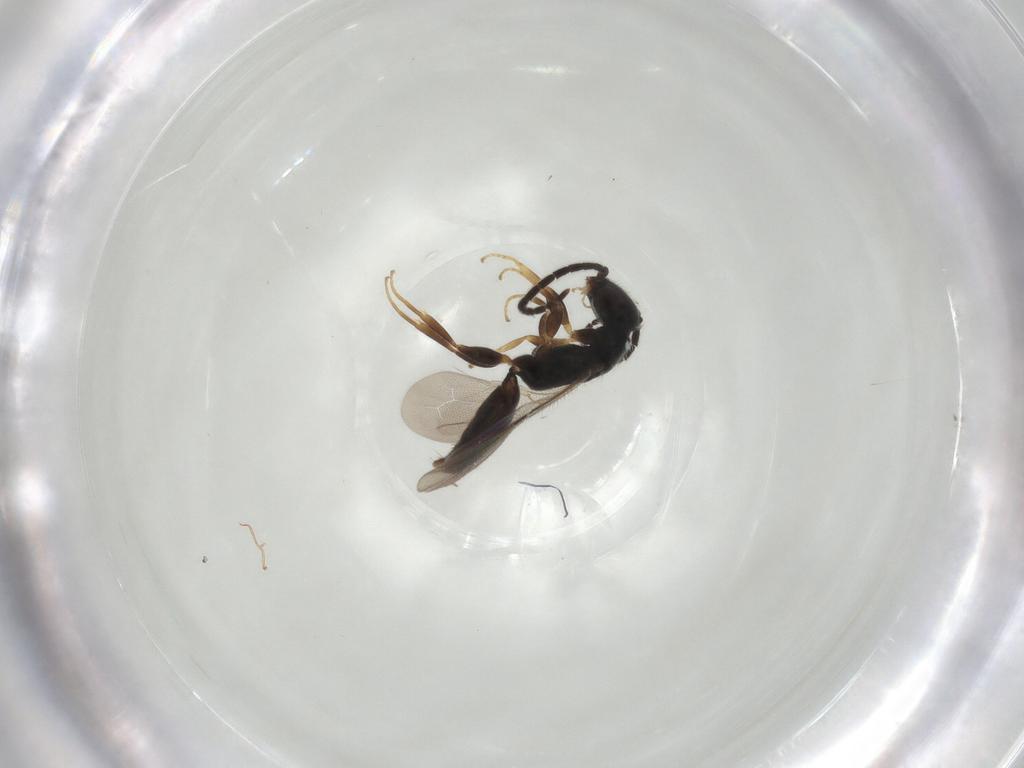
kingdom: Animalia
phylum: Arthropoda
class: Insecta
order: Hymenoptera
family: Bethylidae
